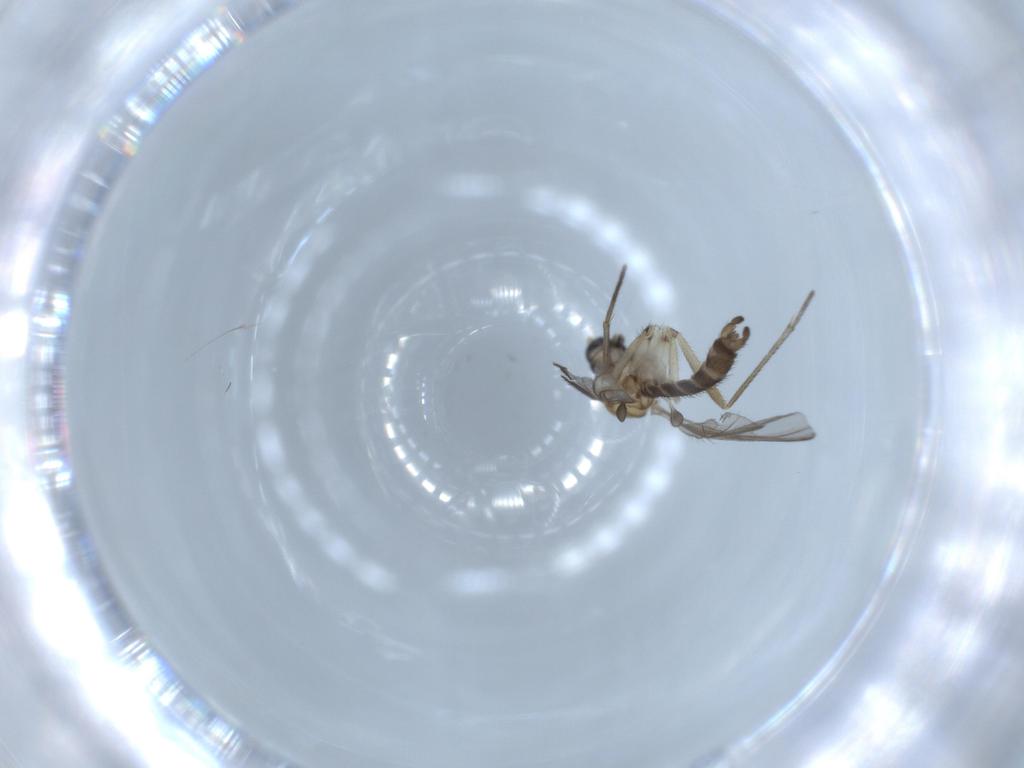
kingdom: Animalia
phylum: Arthropoda
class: Insecta
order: Diptera
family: Sciaridae
